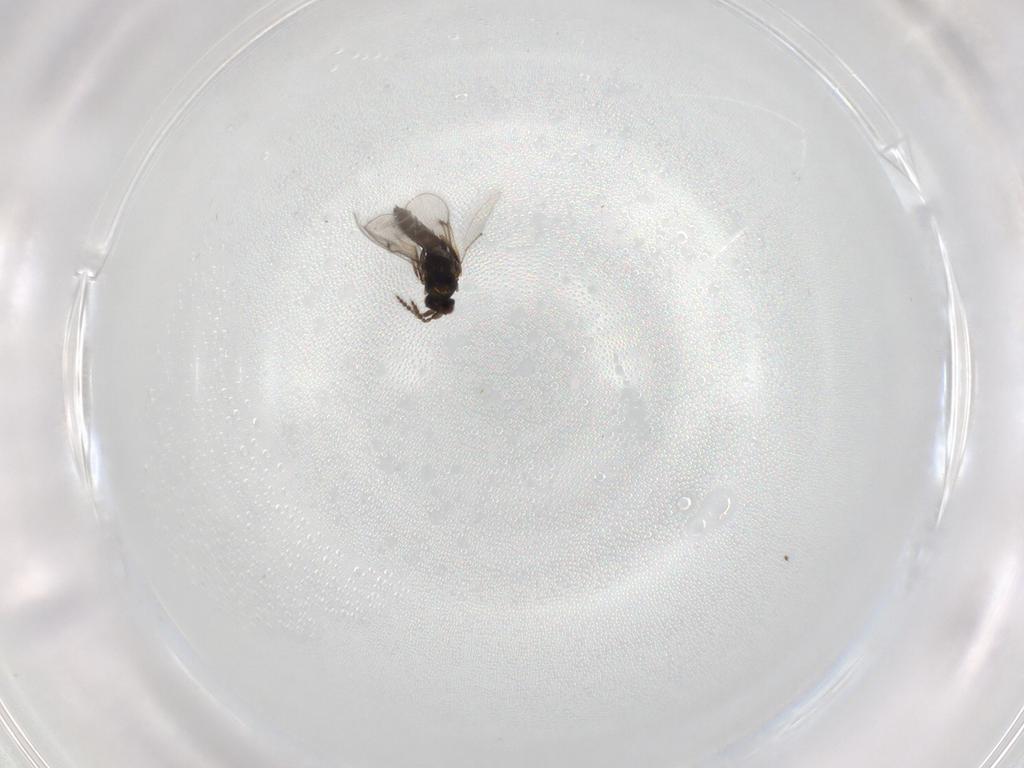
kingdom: Animalia
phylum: Arthropoda
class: Insecta
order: Hymenoptera
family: Eulophidae
